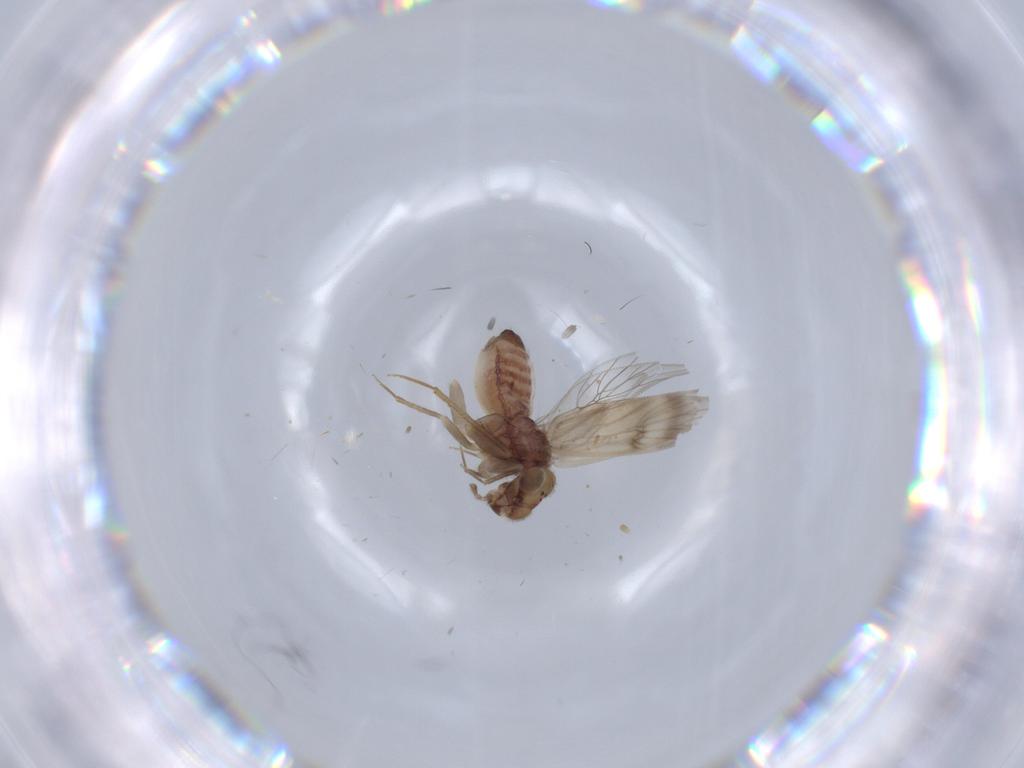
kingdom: Animalia
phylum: Arthropoda
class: Insecta
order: Psocodea
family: Lepidopsocidae
